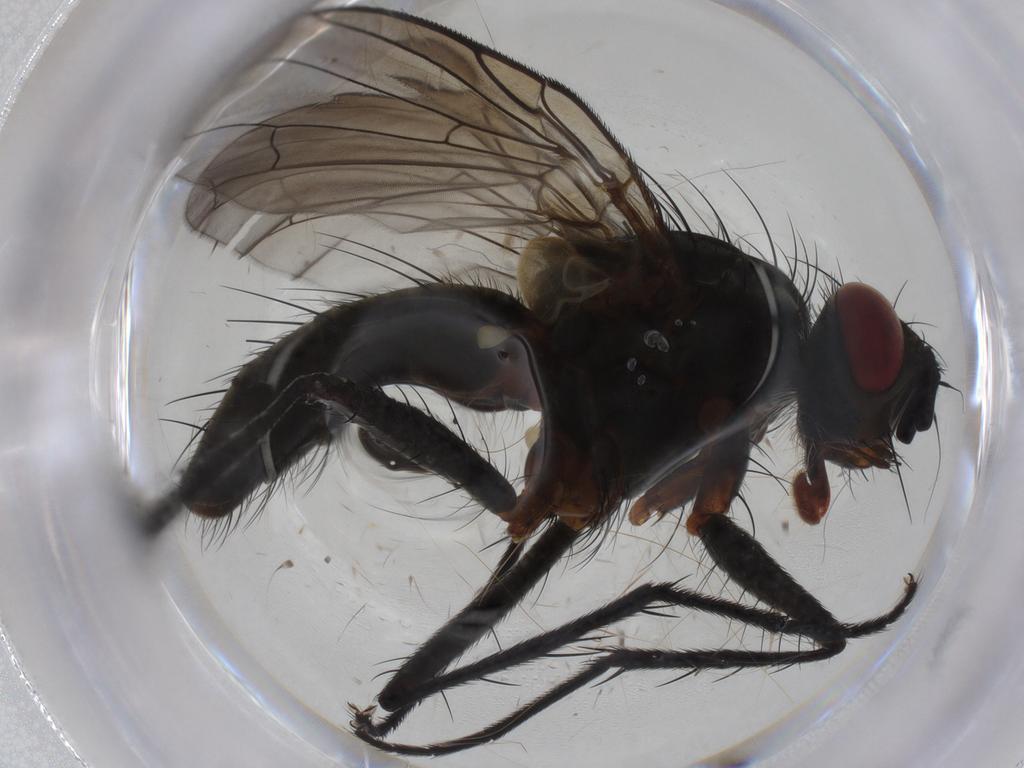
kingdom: Animalia
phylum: Arthropoda
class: Insecta
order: Diptera
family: Tachinidae
